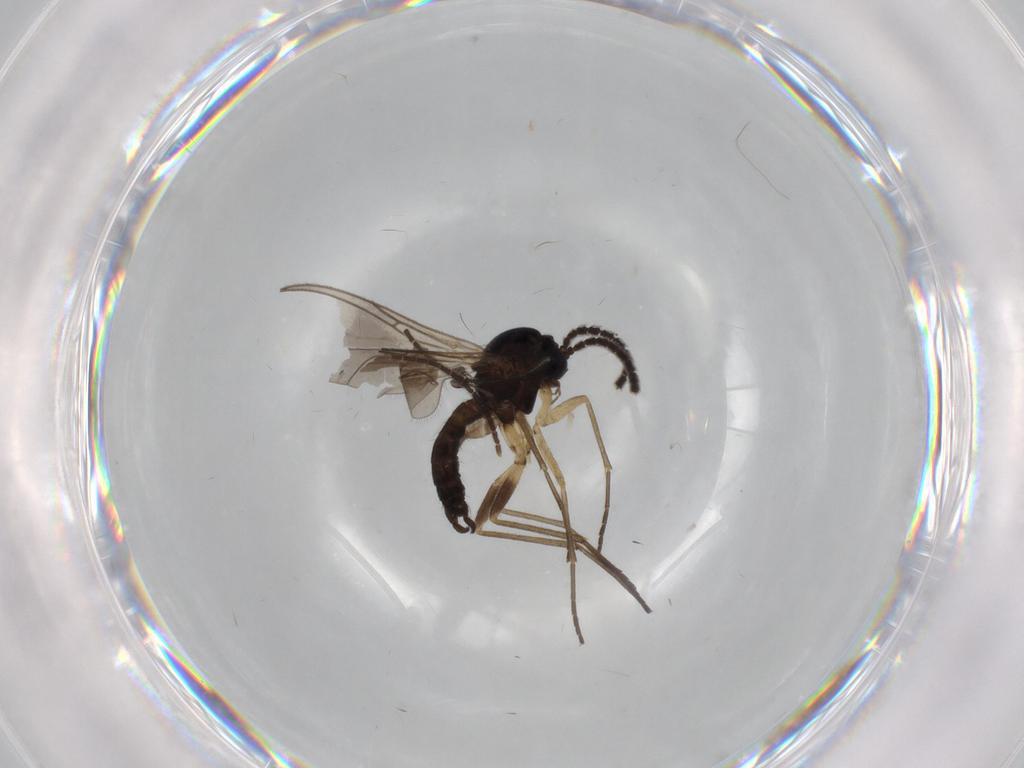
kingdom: Animalia
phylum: Arthropoda
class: Insecta
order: Diptera
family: Sciaridae
